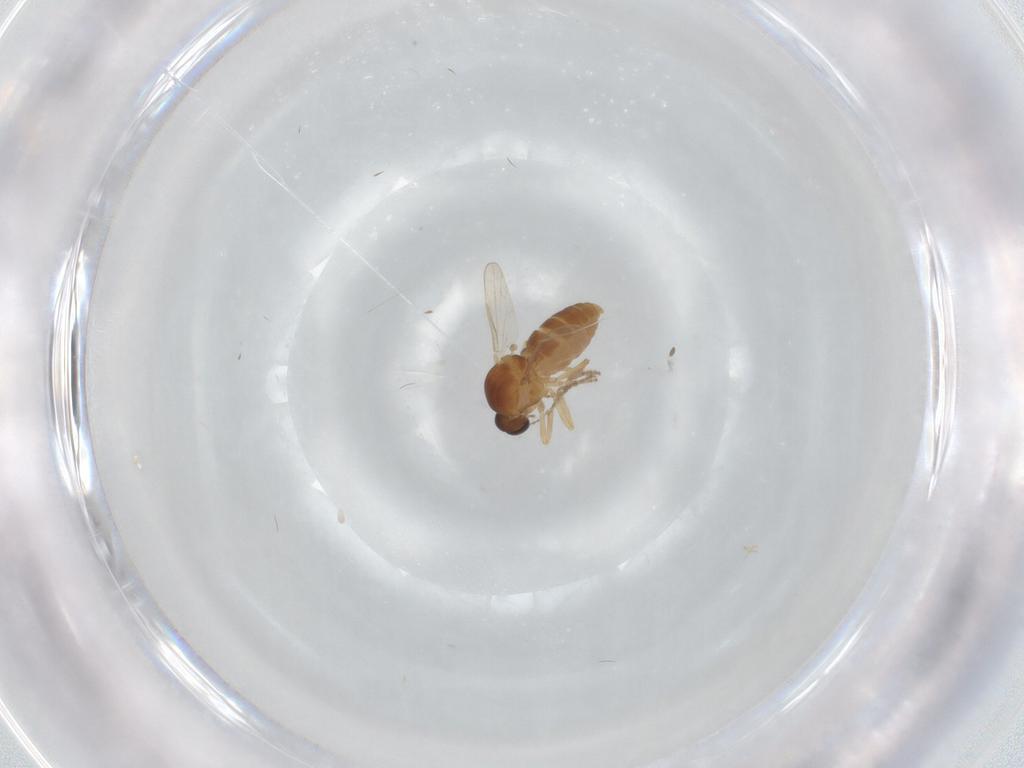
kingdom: Animalia
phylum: Arthropoda
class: Insecta
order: Diptera
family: Ceratopogonidae
